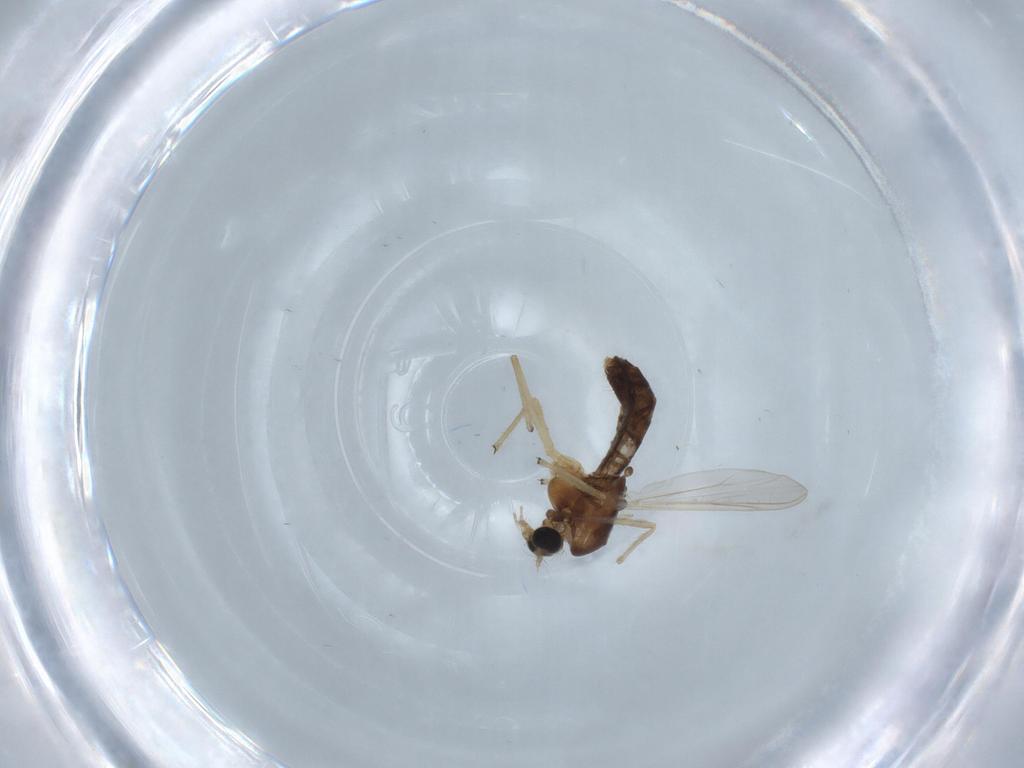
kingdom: Animalia
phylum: Arthropoda
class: Insecta
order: Diptera
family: Chironomidae
